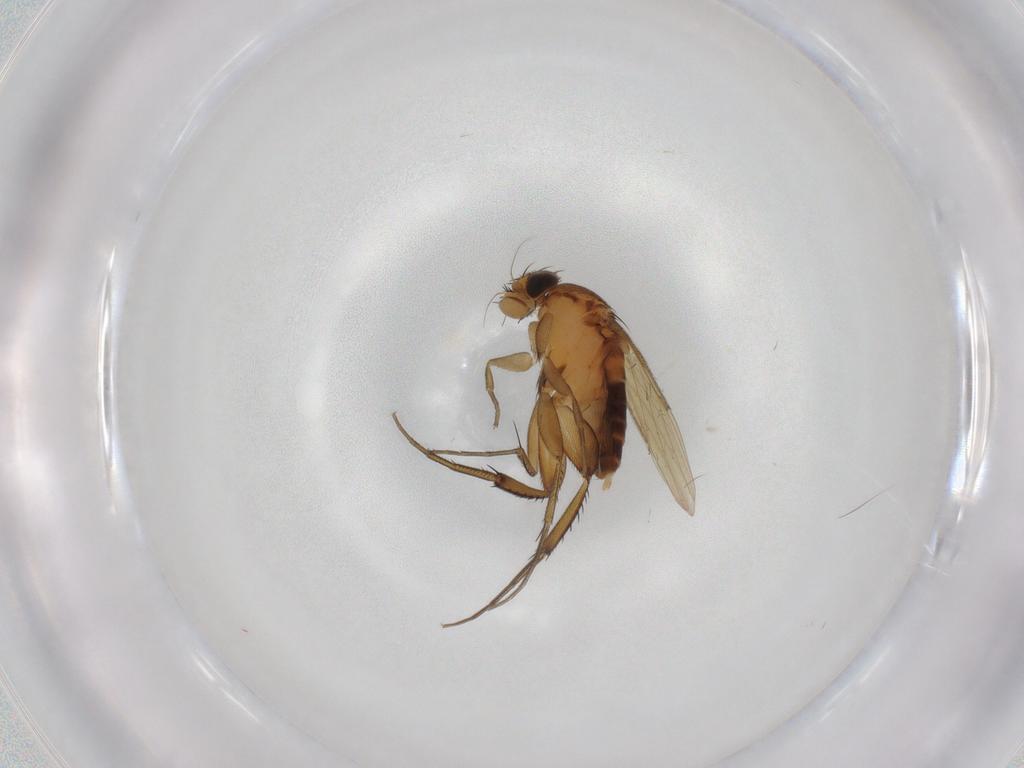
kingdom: Animalia
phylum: Arthropoda
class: Insecta
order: Diptera
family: Phoridae
